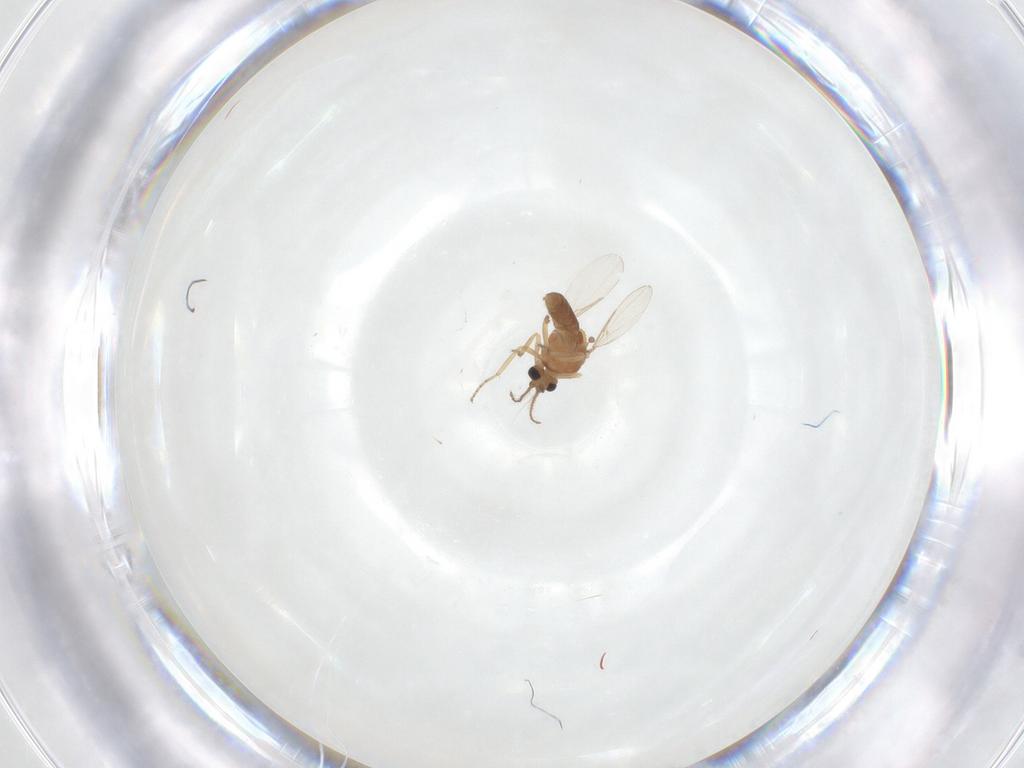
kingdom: Animalia
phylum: Arthropoda
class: Insecta
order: Diptera
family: Ceratopogonidae
